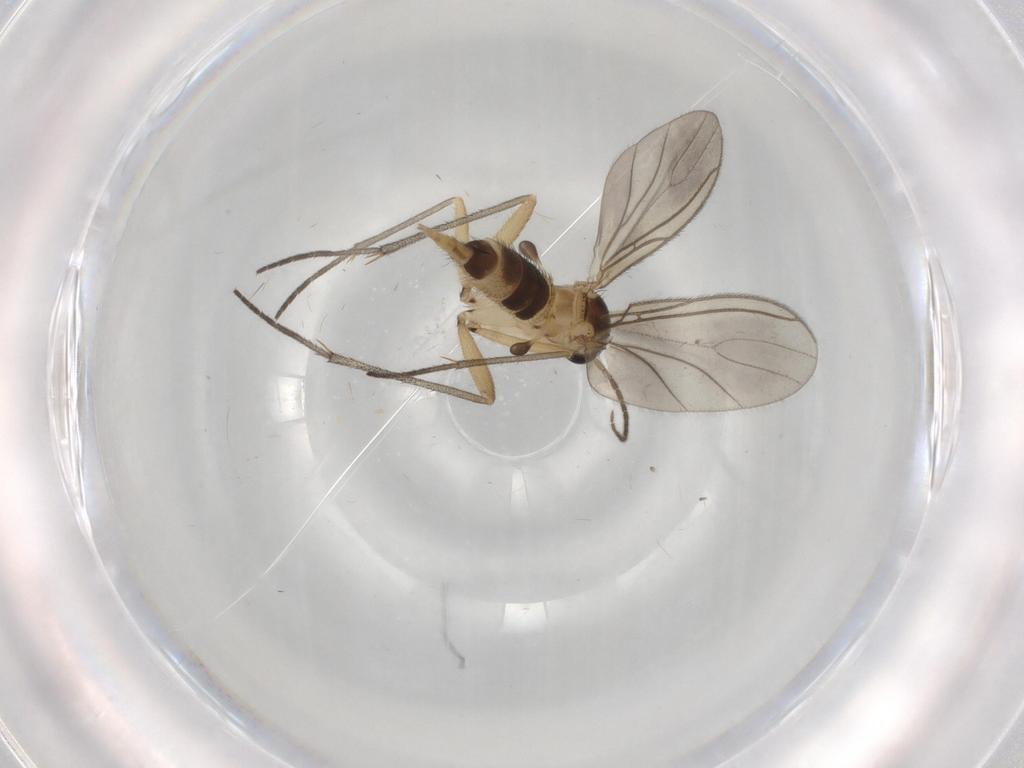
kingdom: Animalia
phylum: Arthropoda
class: Insecta
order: Diptera
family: Sciaridae
